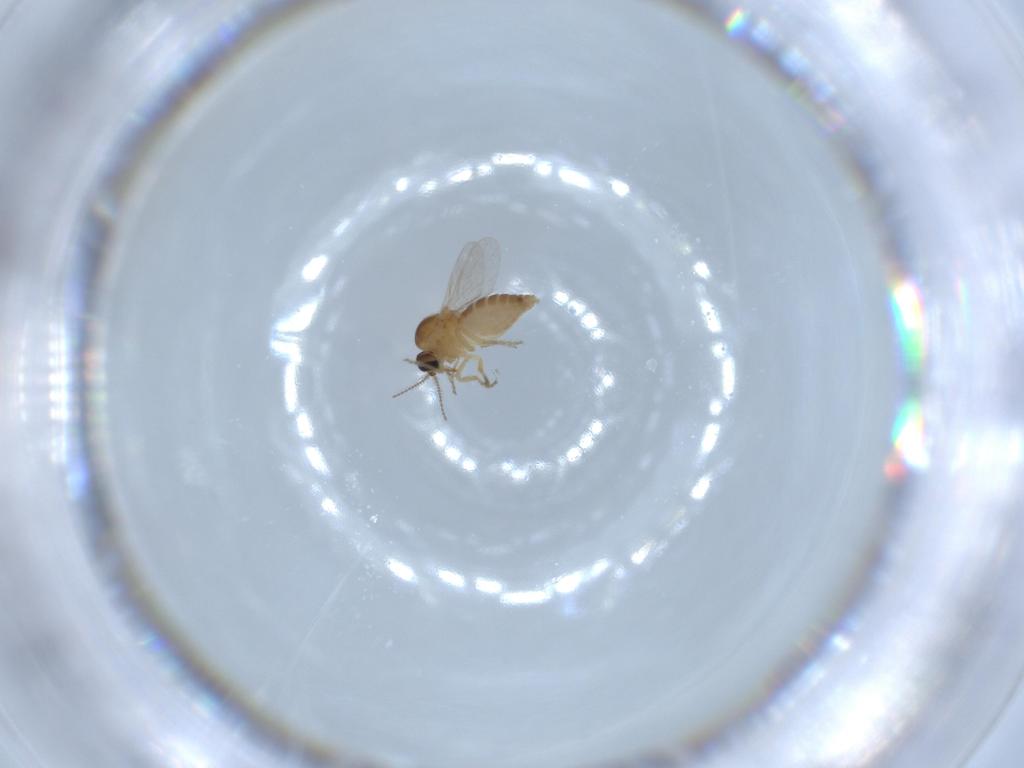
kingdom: Animalia
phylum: Arthropoda
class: Insecta
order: Diptera
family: Ceratopogonidae
